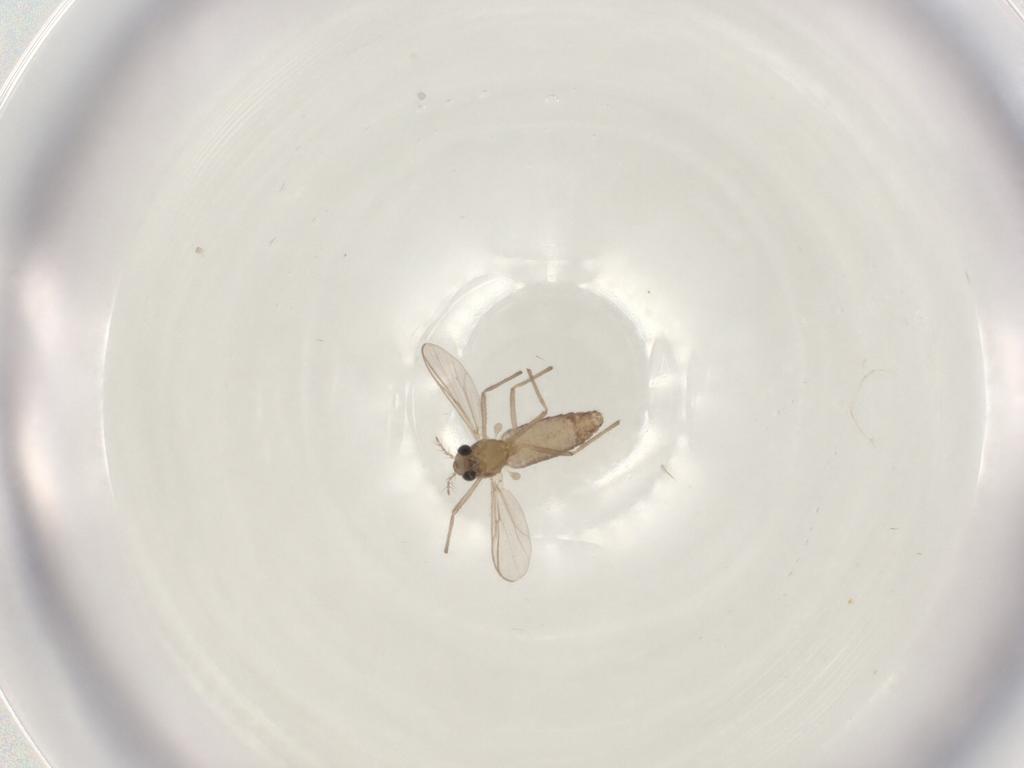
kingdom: Animalia
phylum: Arthropoda
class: Insecta
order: Diptera
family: Chironomidae
